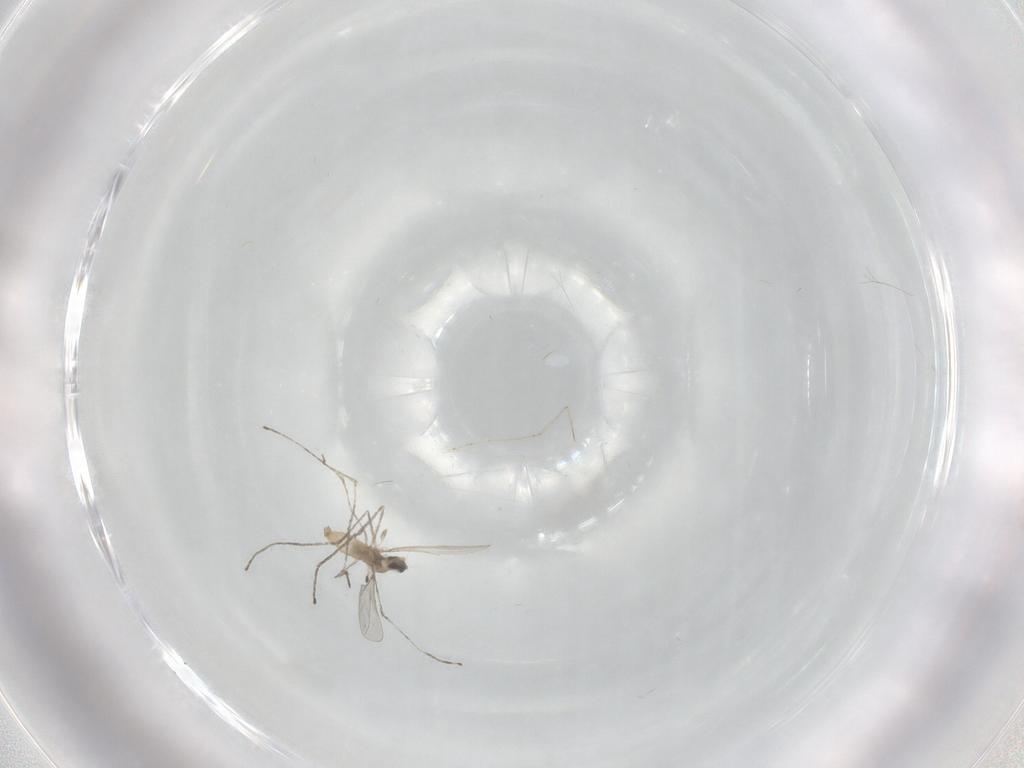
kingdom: Animalia
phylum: Arthropoda
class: Insecta
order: Diptera
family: Cecidomyiidae
